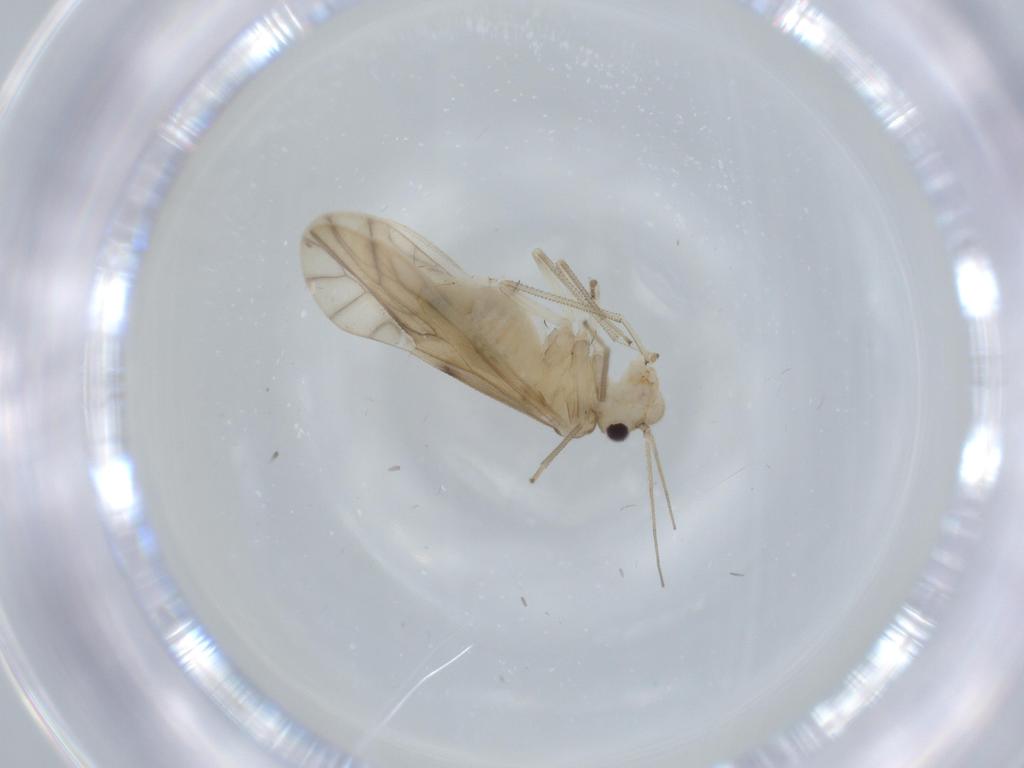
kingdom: Animalia
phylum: Arthropoda
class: Insecta
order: Psocodea
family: Caeciliusidae
